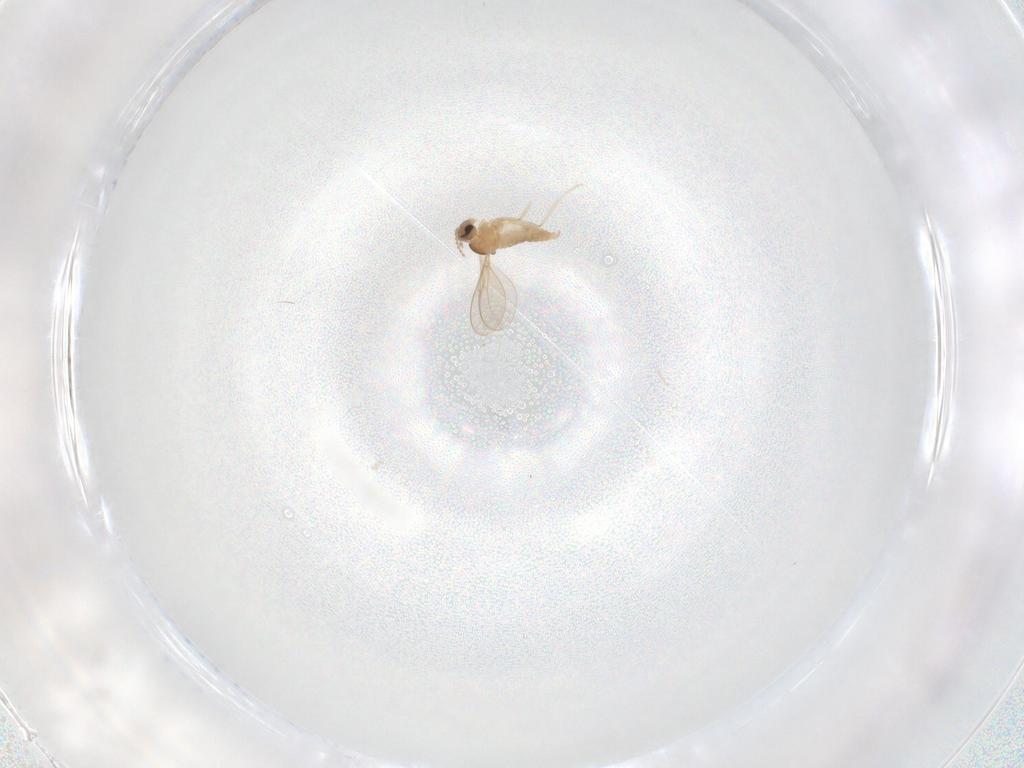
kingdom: Animalia
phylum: Arthropoda
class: Insecta
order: Diptera
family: Cecidomyiidae
